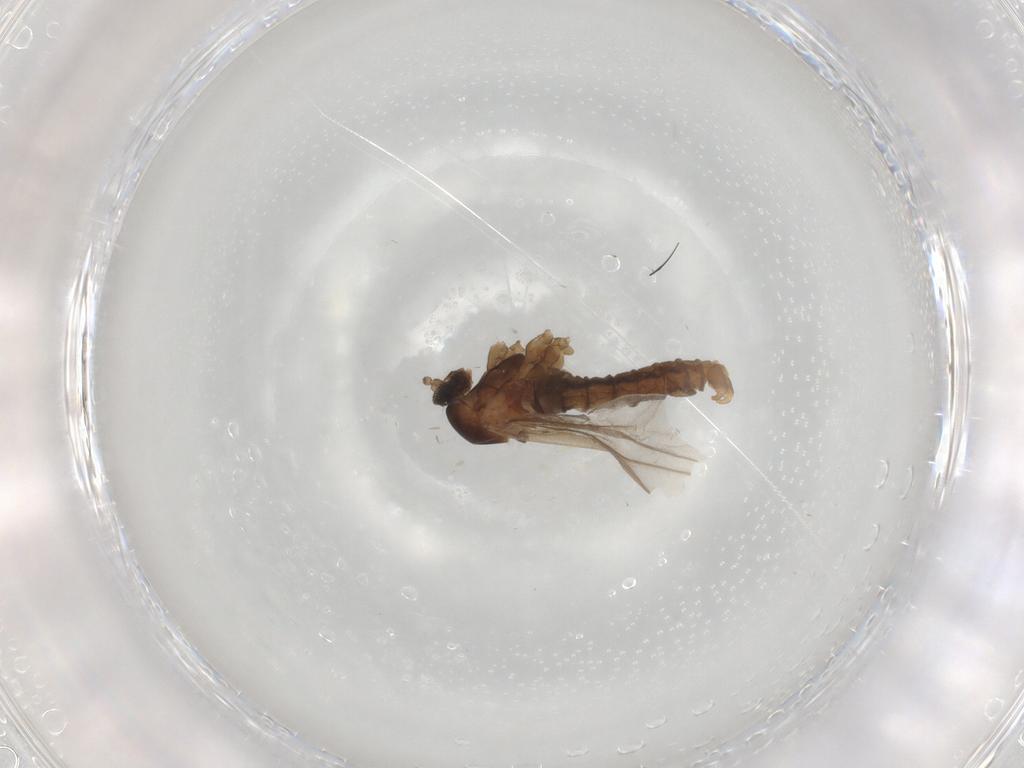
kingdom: Animalia
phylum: Arthropoda
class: Insecta
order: Diptera
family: Cecidomyiidae
